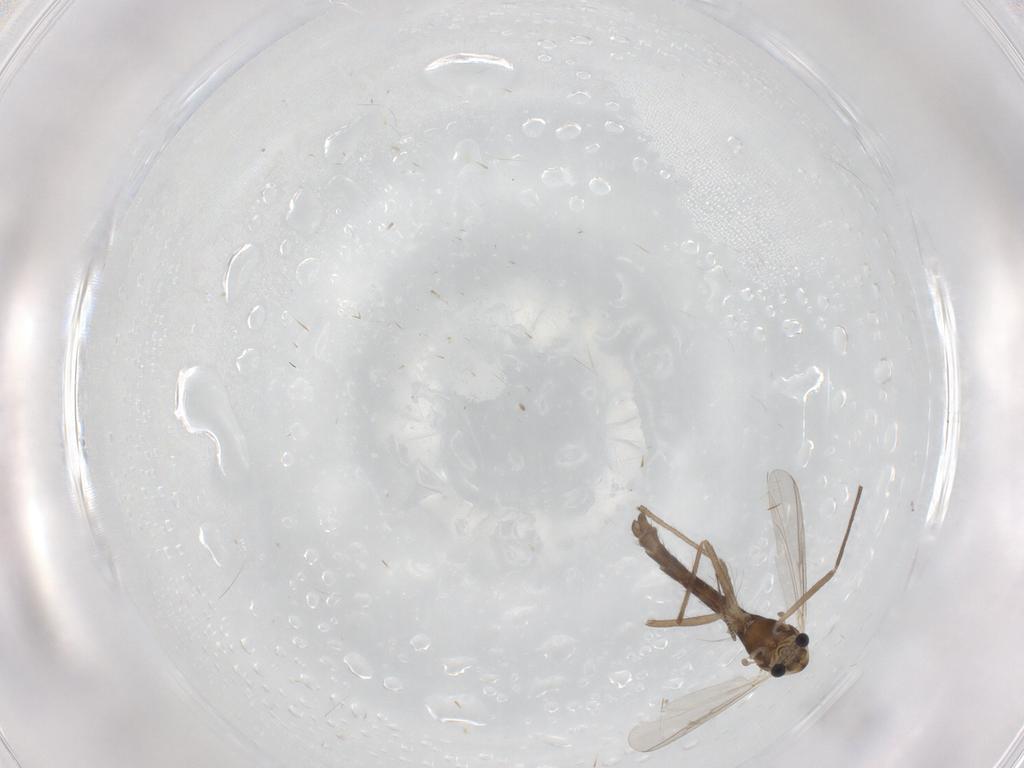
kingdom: Animalia
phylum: Arthropoda
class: Insecta
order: Diptera
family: Chironomidae
